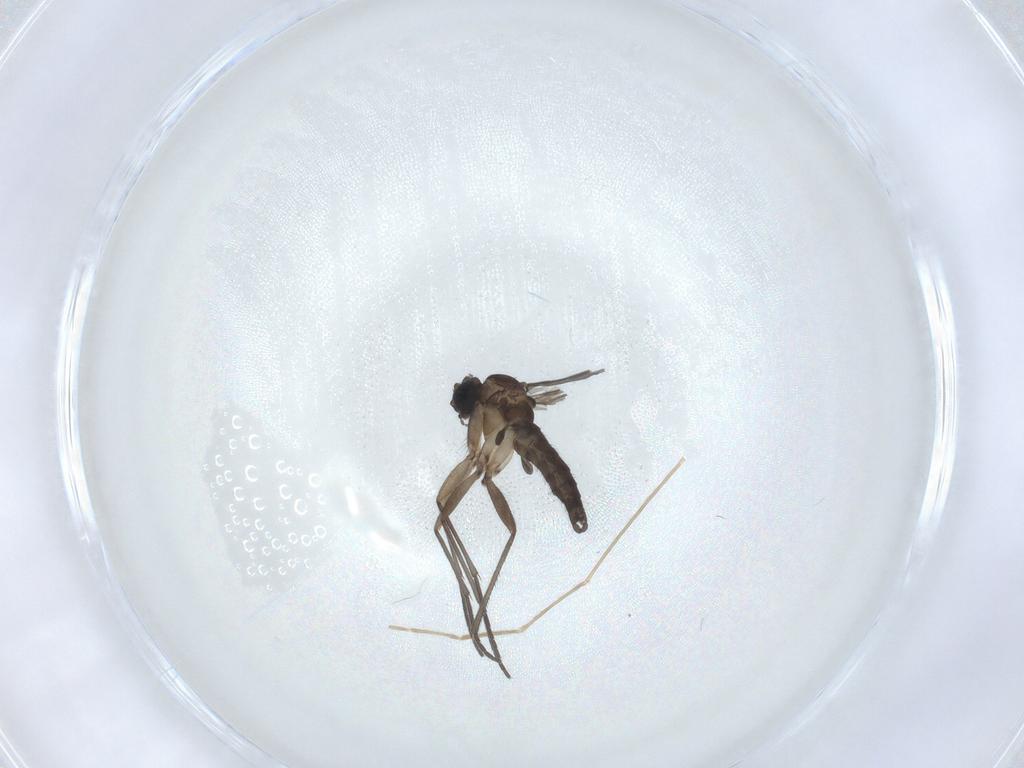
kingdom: Animalia
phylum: Arthropoda
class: Insecta
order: Diptera
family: Sciaridae
